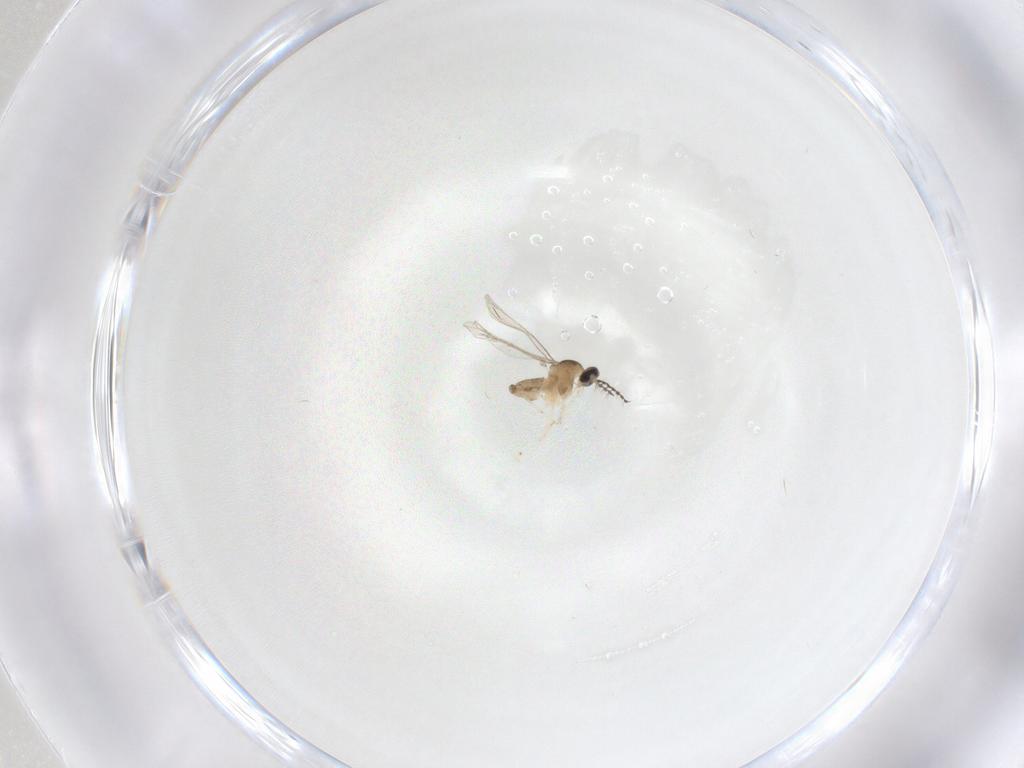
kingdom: Animalia
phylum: Arthropoda
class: Insecta
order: Diptera
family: Cecidomyiidae
